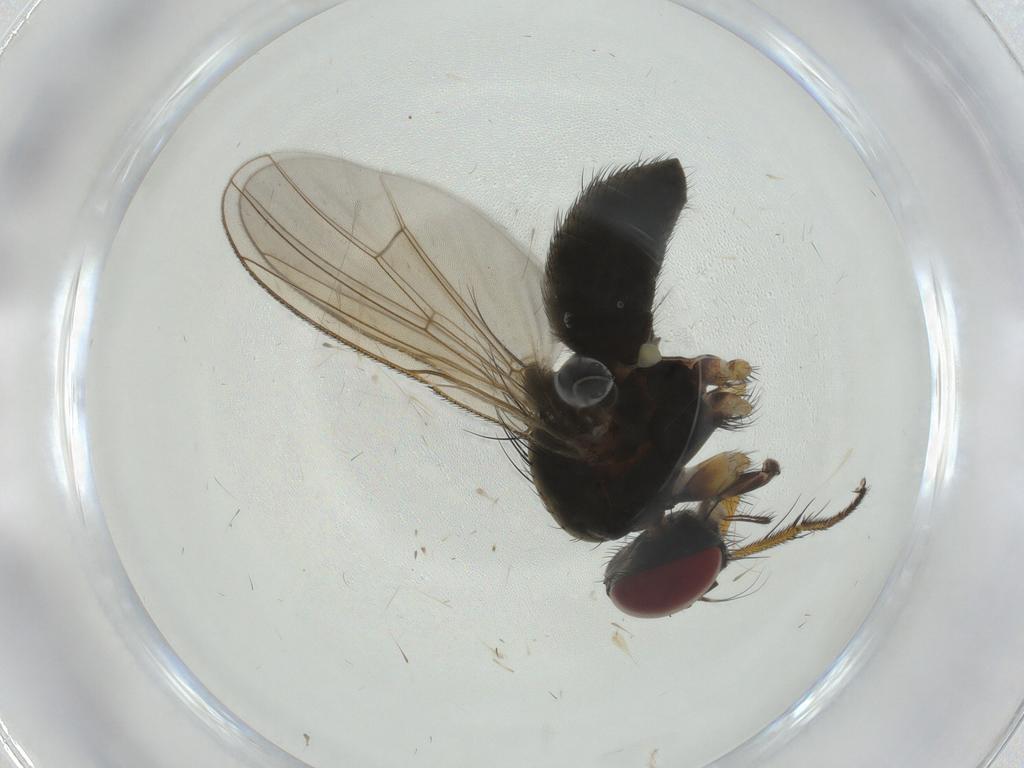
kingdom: Animalia
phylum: Arthropoda
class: Insecta
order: Diptera
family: Muscidae
